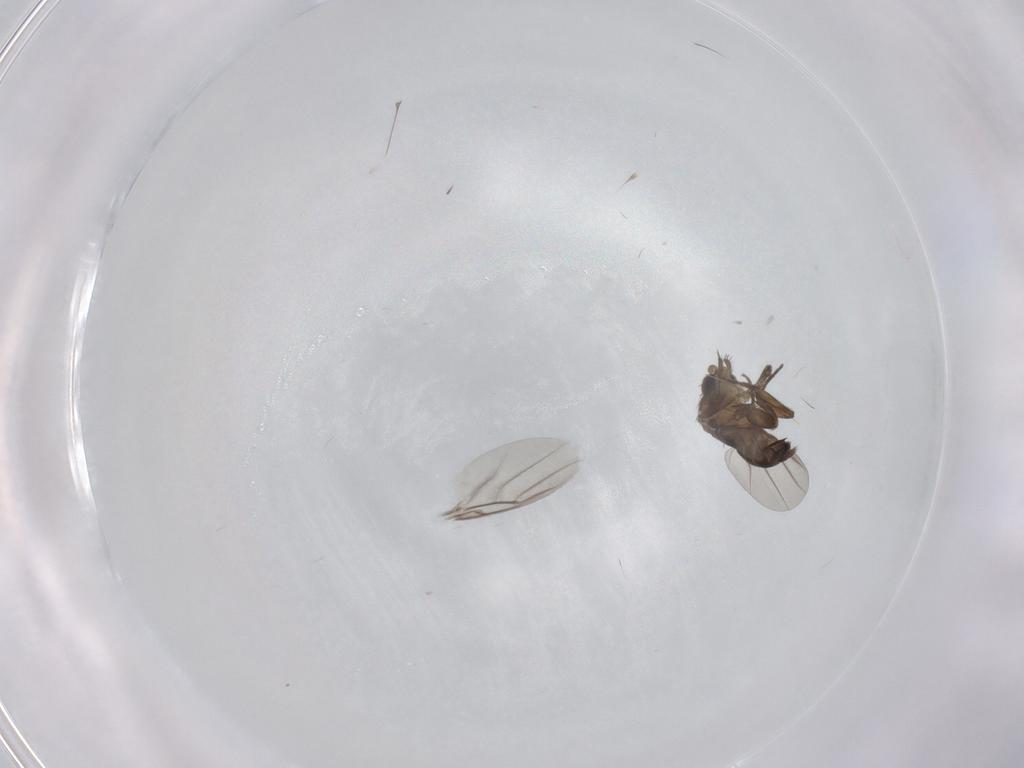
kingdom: Animalia
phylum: Arthropoda
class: Insecta
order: Diptera
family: Phoridae
